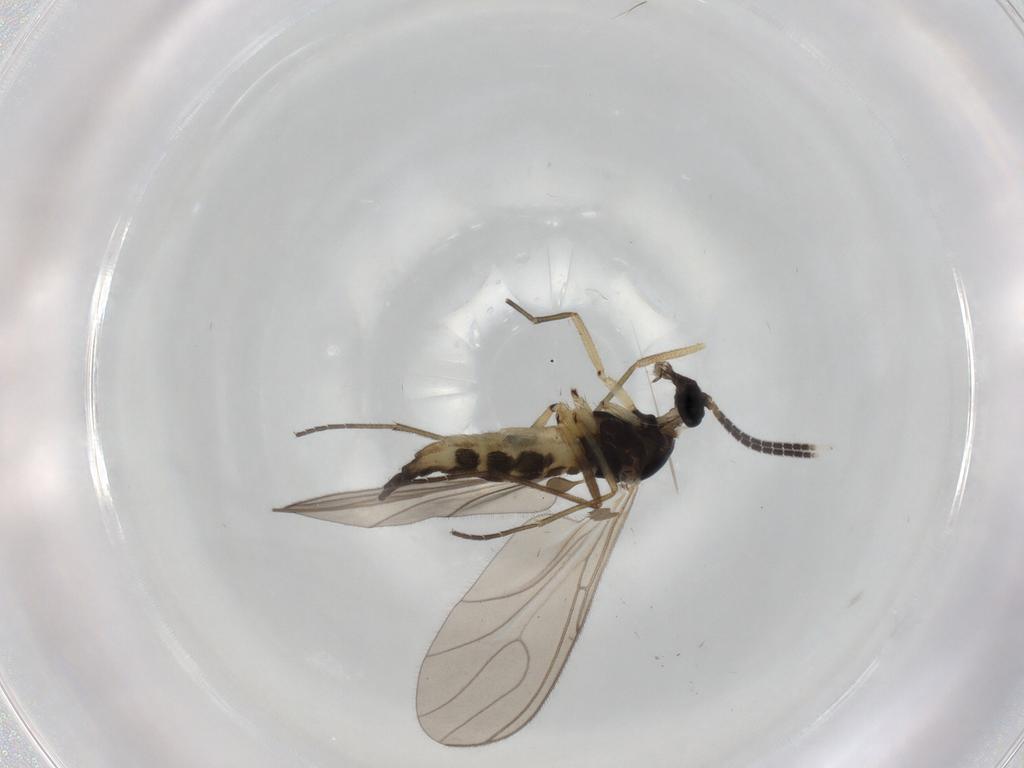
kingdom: Animalia
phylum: Arthropoda
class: Insecta
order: Diptera
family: Sciaridae
